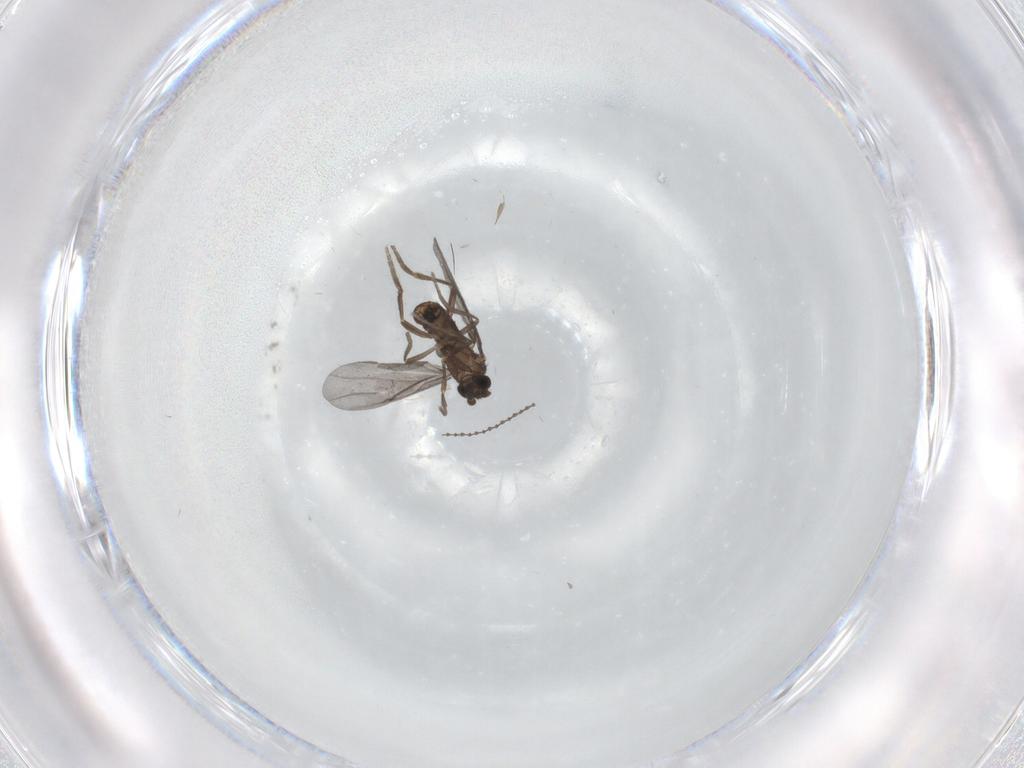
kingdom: Animalia
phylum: Arthropoda
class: Insecta
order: Diptera
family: Phoridae
